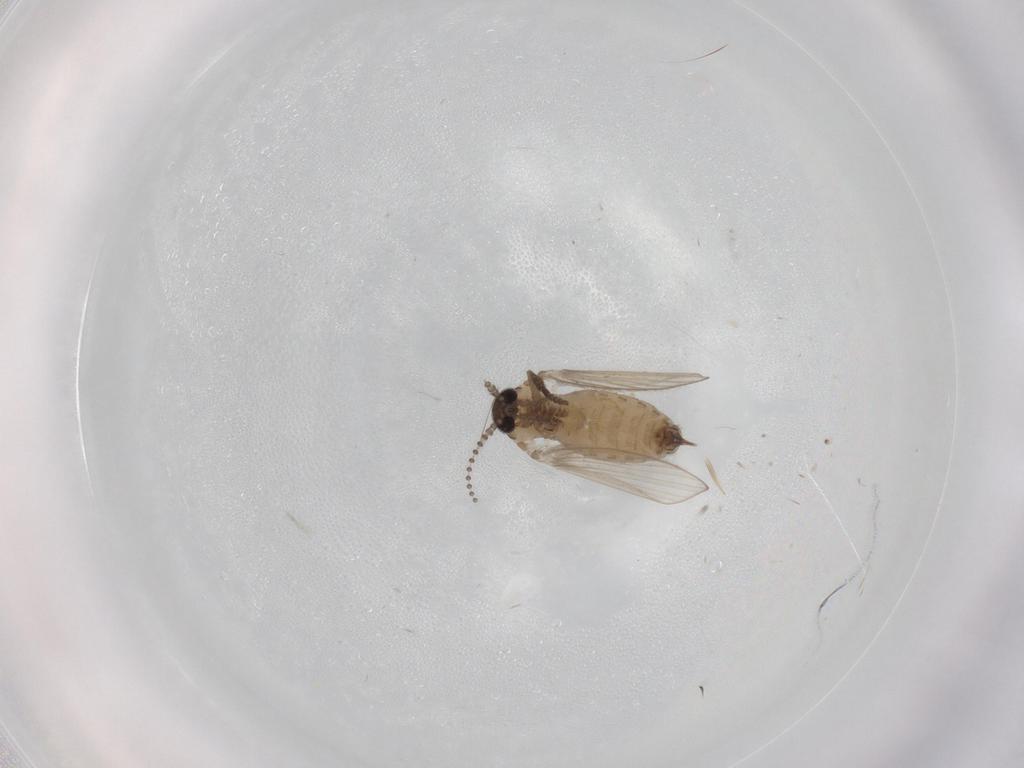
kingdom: Animalia
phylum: Arthropoda
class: Insecta
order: Diptera
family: Psychodidae
